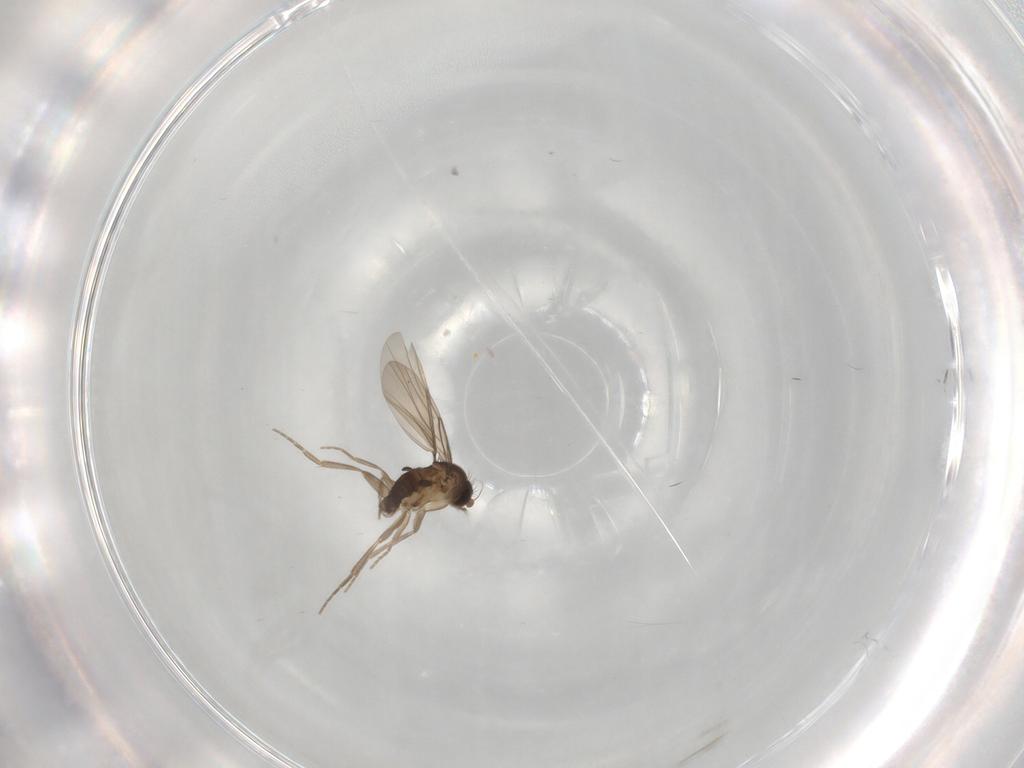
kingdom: Animalia
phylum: Arthropoda
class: Insecta
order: Diptera
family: Phoridae
